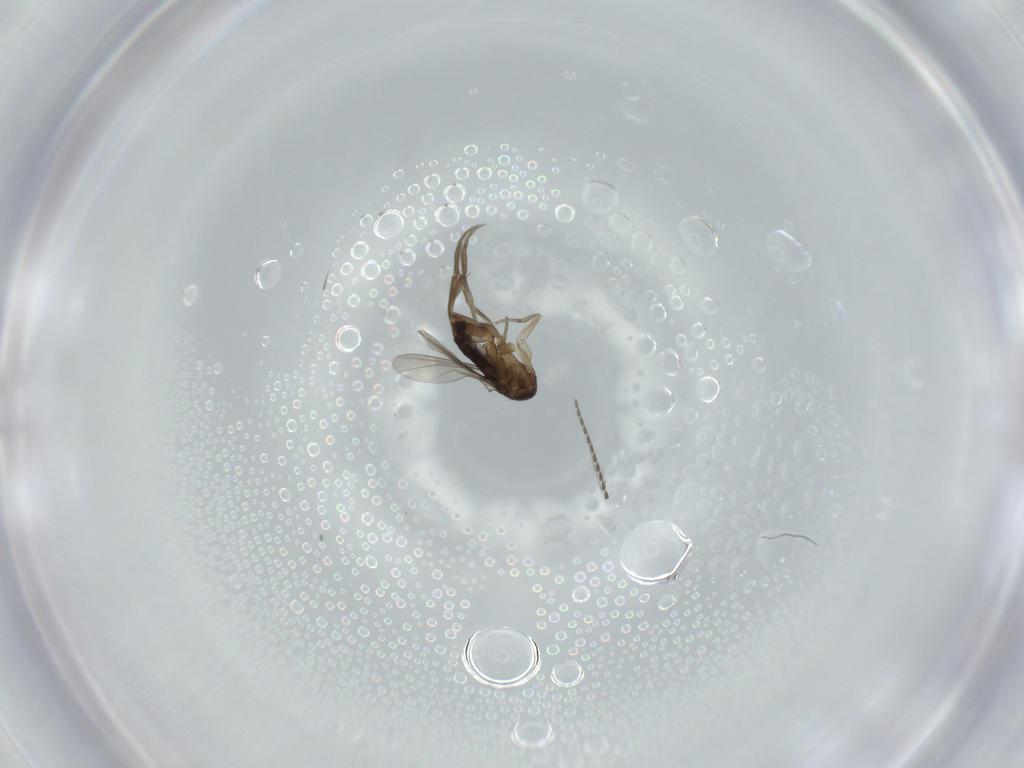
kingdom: Animalia
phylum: Arthropoda
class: Insecta
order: Diptera
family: Phoridae
